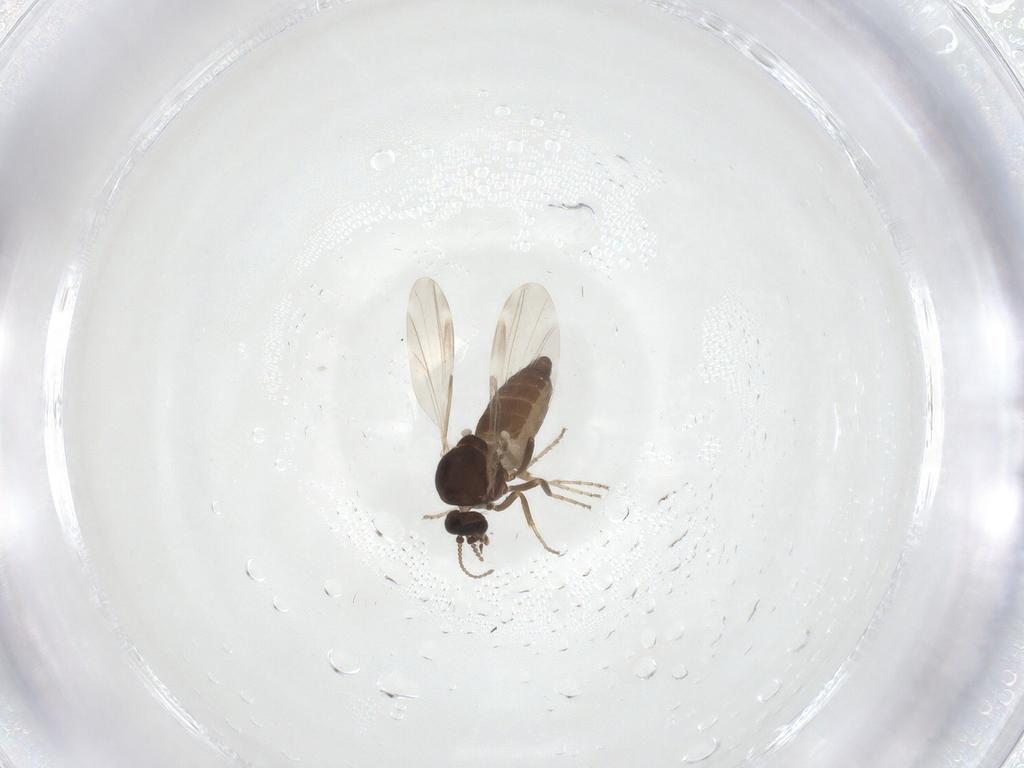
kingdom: Animalia
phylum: Arthropoda
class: Insecta
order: Diptera
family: Ceratopogonidae
